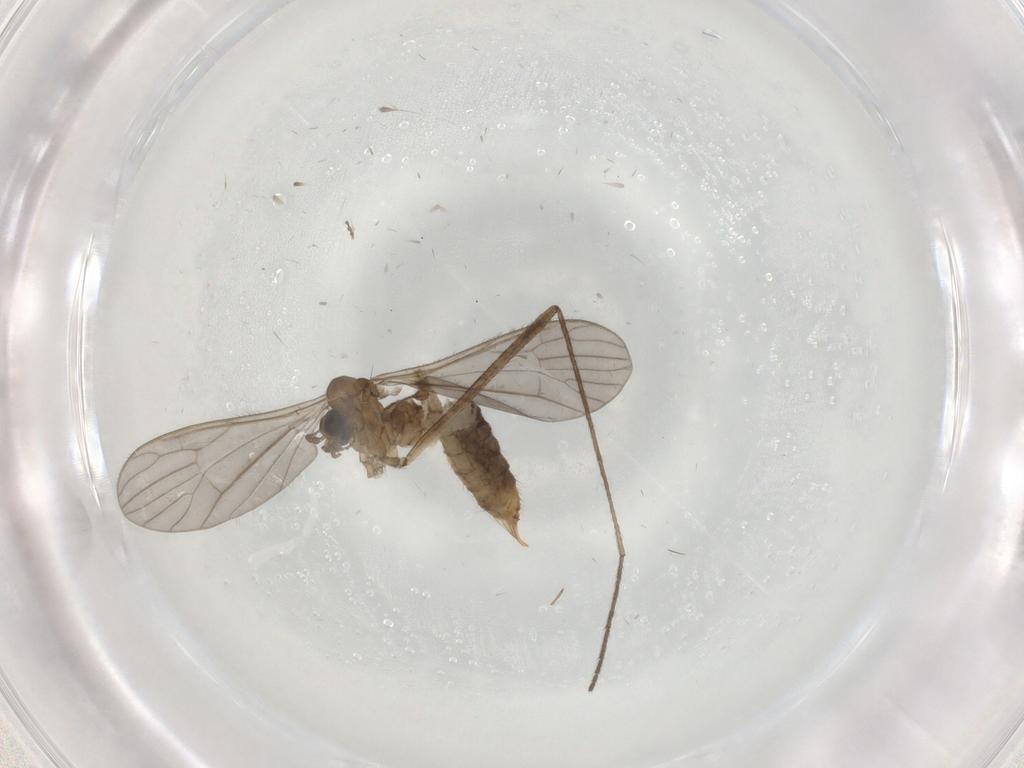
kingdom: Animalia
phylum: Arthropoda
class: Insecta
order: Diptera
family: Limoniidae
